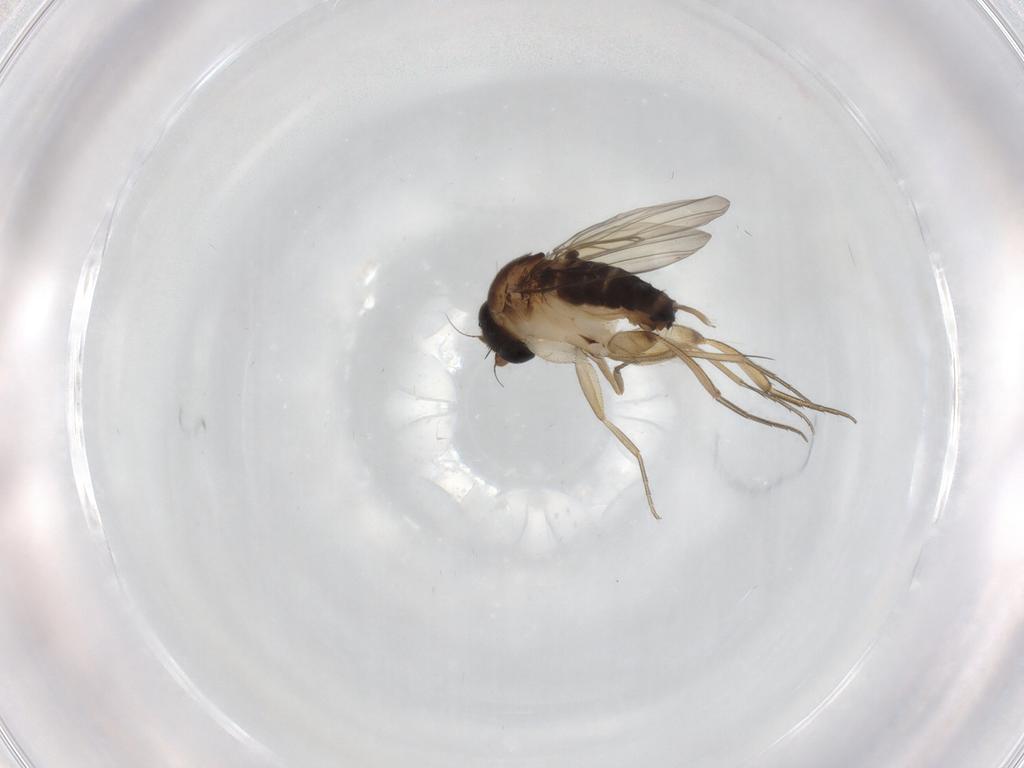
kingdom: Animalia
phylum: Arthropoda
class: Insecta
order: Diptera
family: Phoridae
